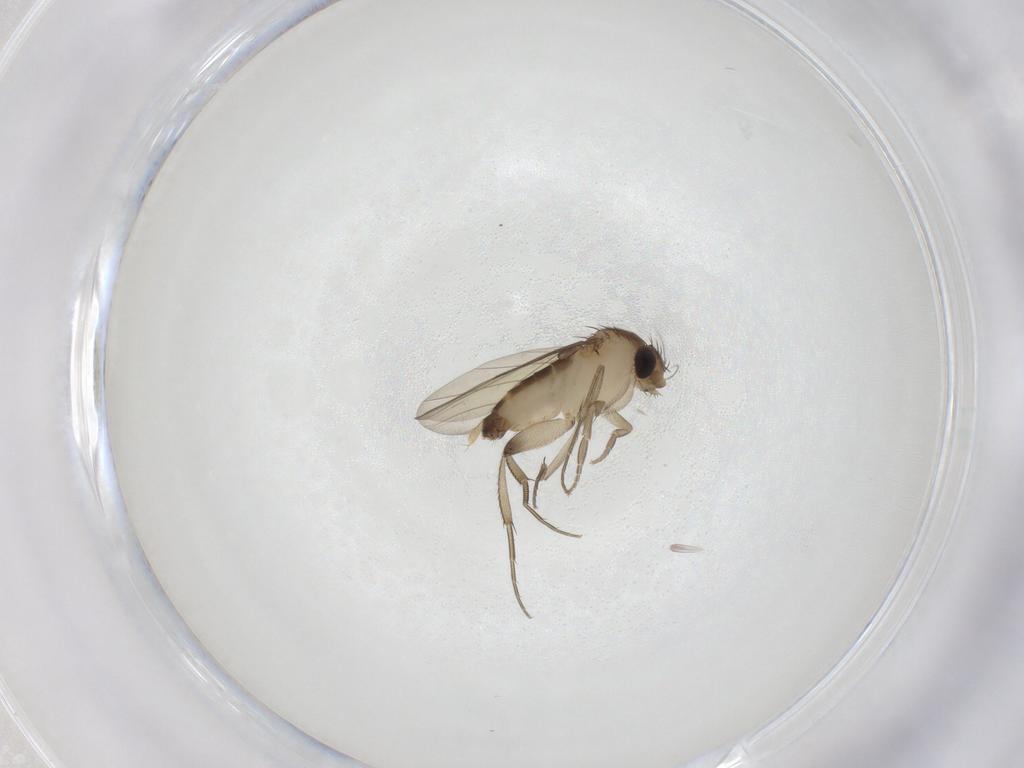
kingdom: Animalia
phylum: Arthropoda
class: Insecta
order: Diptera
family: Phoridae
